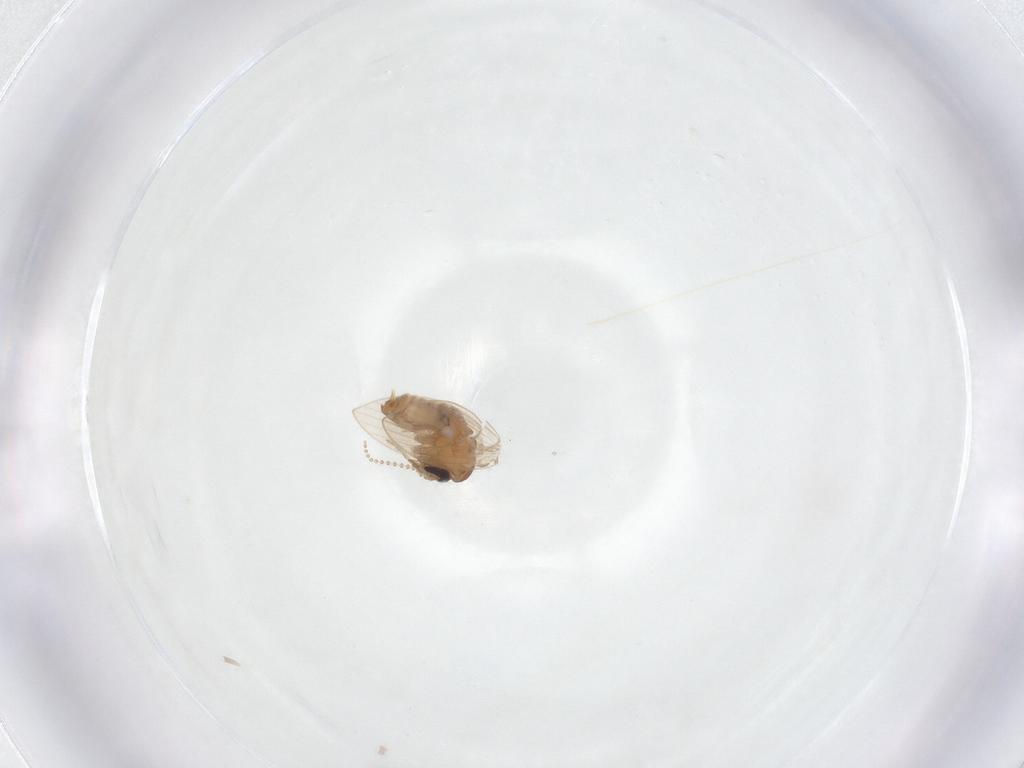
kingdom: Animalia
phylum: Arthropoda
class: Insecta
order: Diptera
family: Psychodidae
